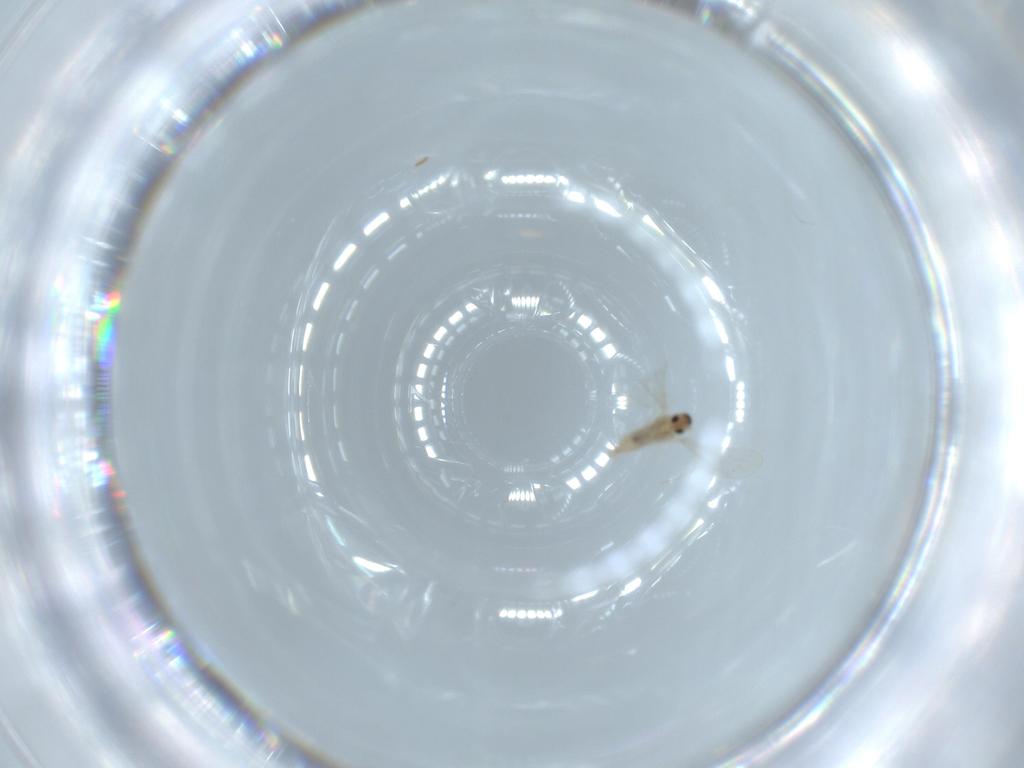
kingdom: Animalia
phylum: Arthropoda
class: Insecta
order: Diptera
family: Cecidomyiidae
